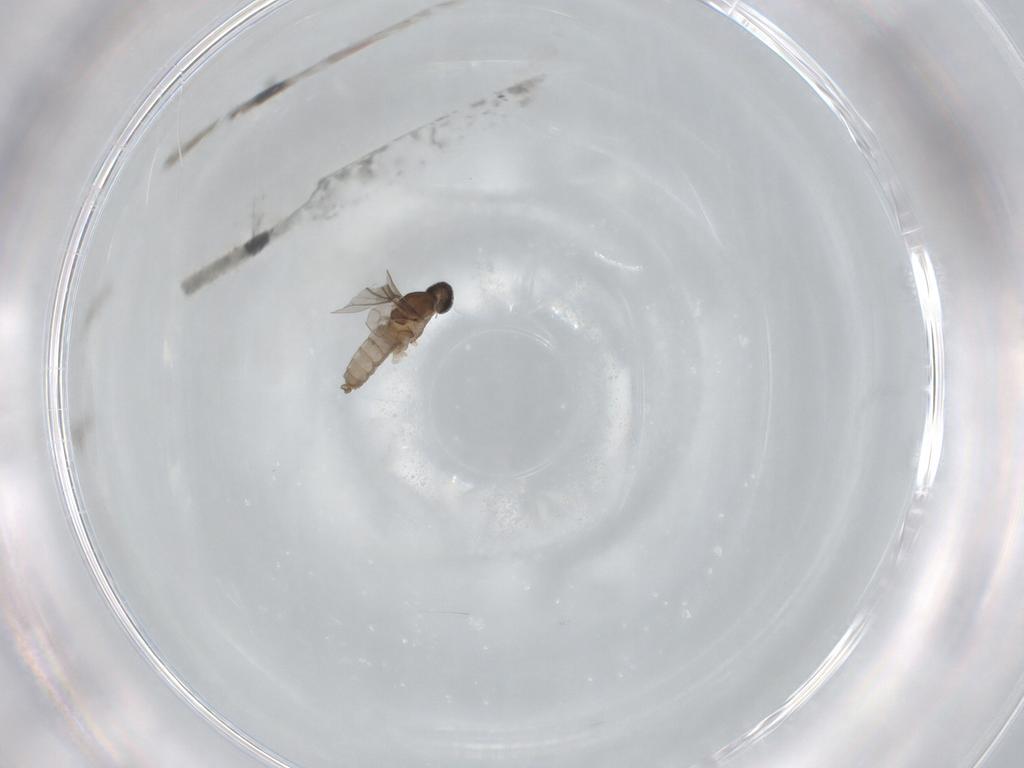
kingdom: Animalia
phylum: Arthropoda
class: Insecta
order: Diptera
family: Cecidomyiidae
